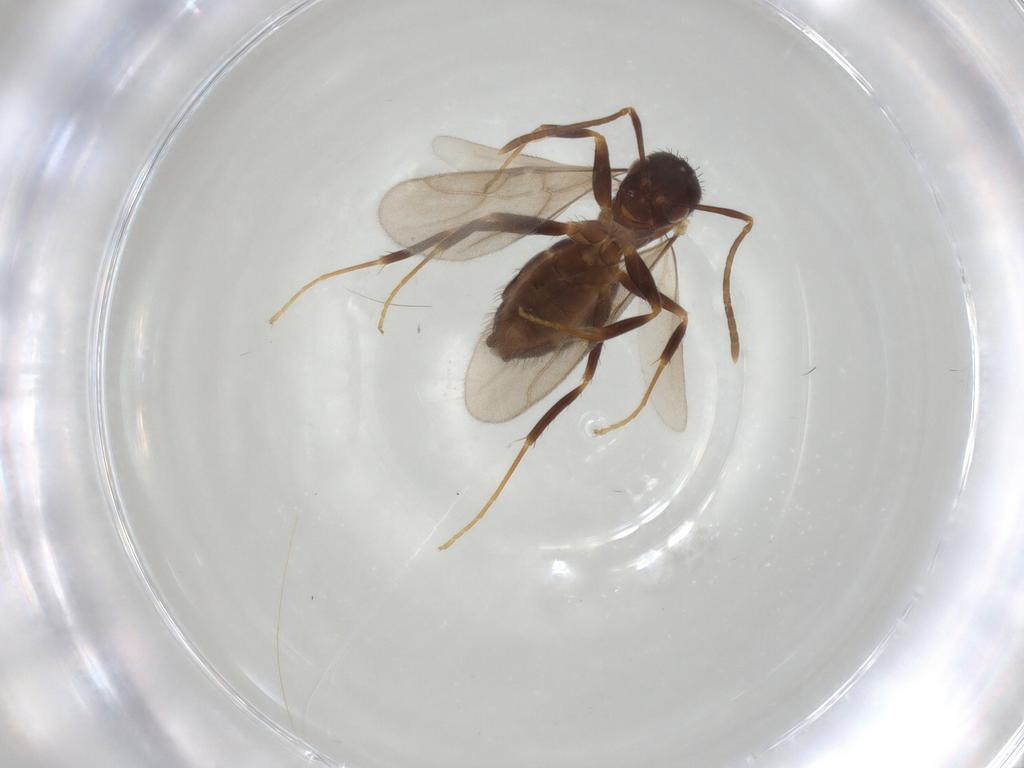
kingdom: Animalia
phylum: Arthropoda
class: Insecta
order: Hymenoptera
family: Formicidae
